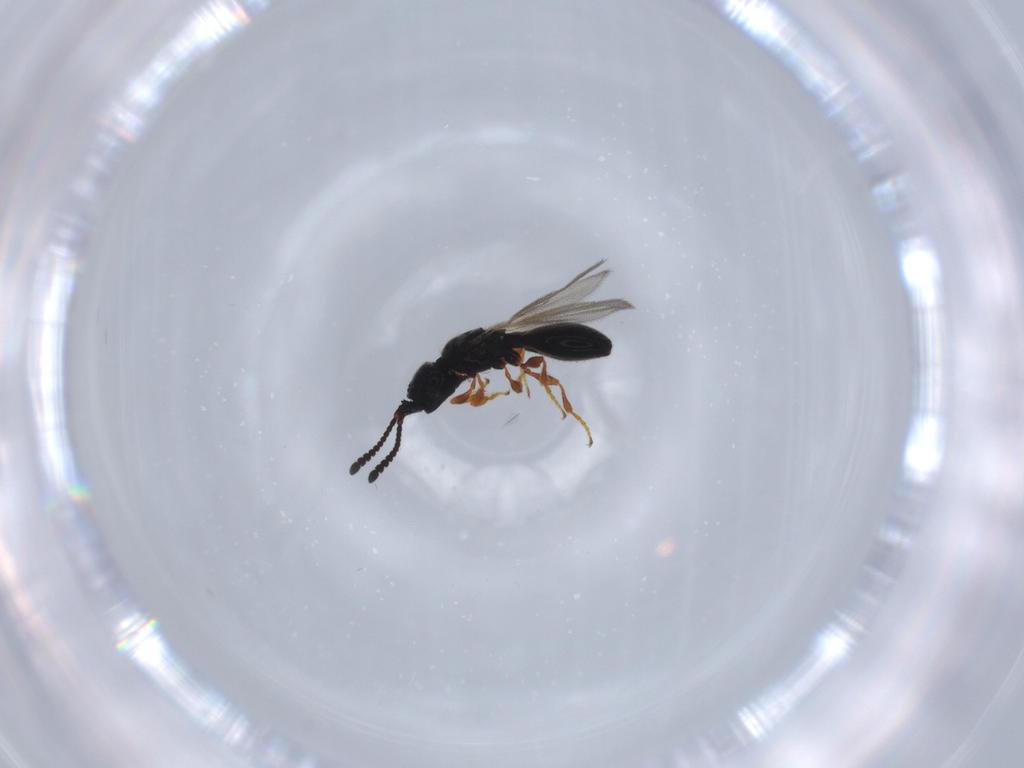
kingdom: Animalia
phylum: Arthropoda
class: Insecta
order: Hymenoptera
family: Diapriidae
